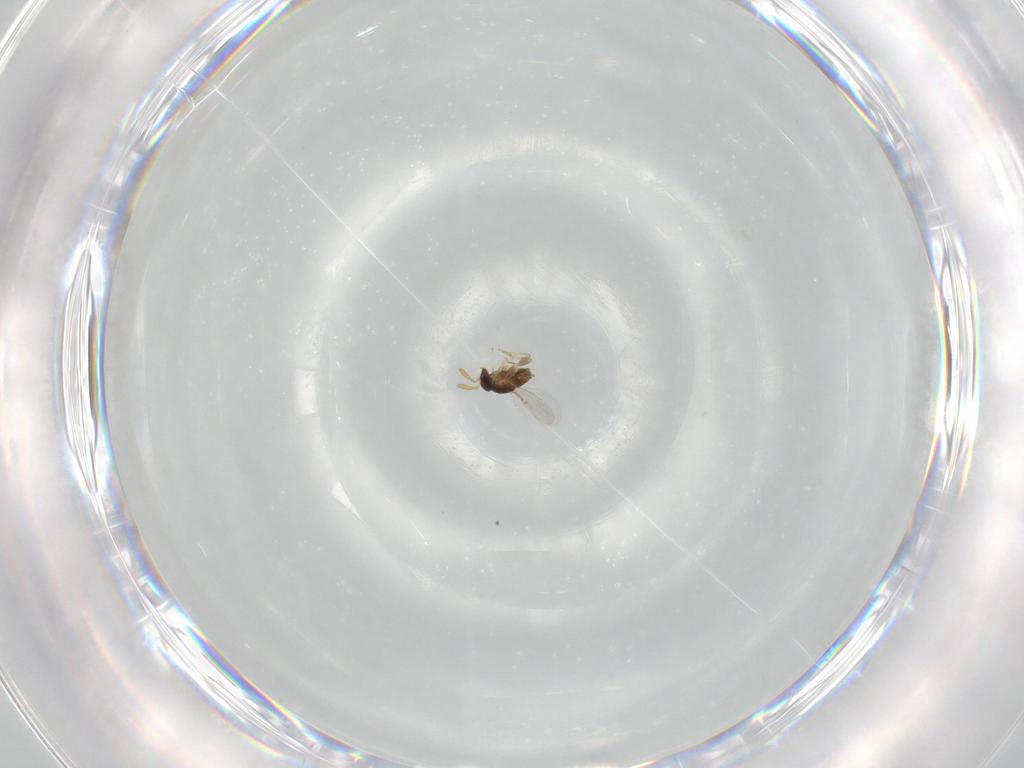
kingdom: Animalia
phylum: Arthropoda
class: Insecta
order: Hymenoptera
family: Encyrtidae
